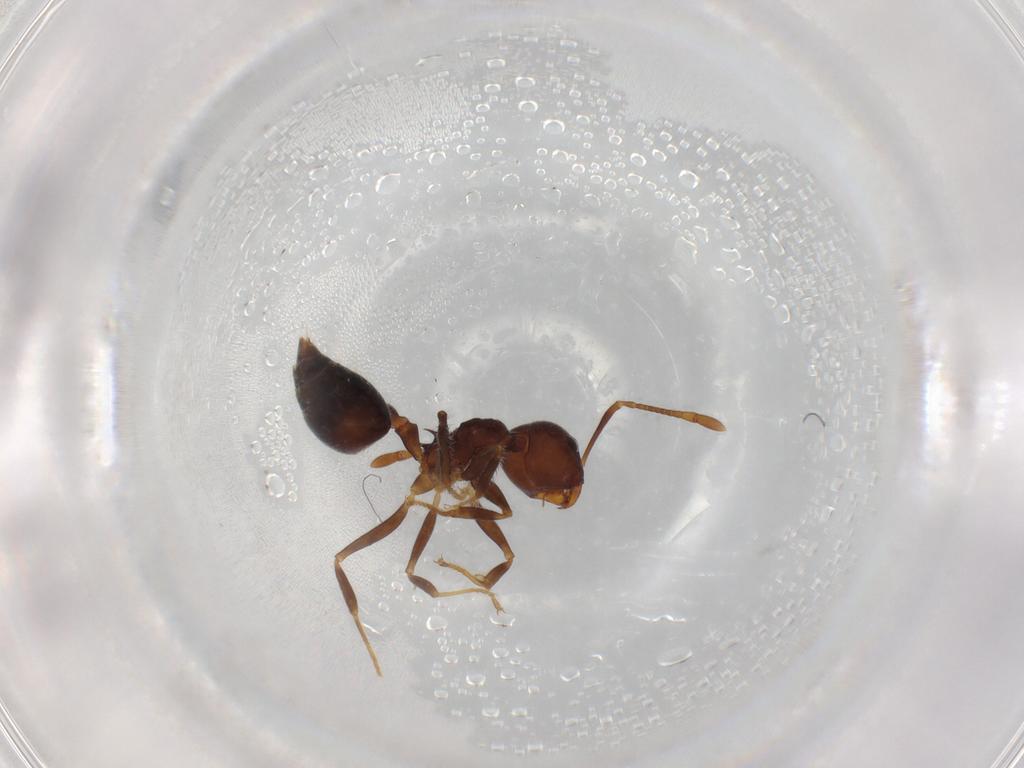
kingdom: Animalia
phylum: Arthropoda
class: Insecta
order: Hymenoptera
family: Formicidae
